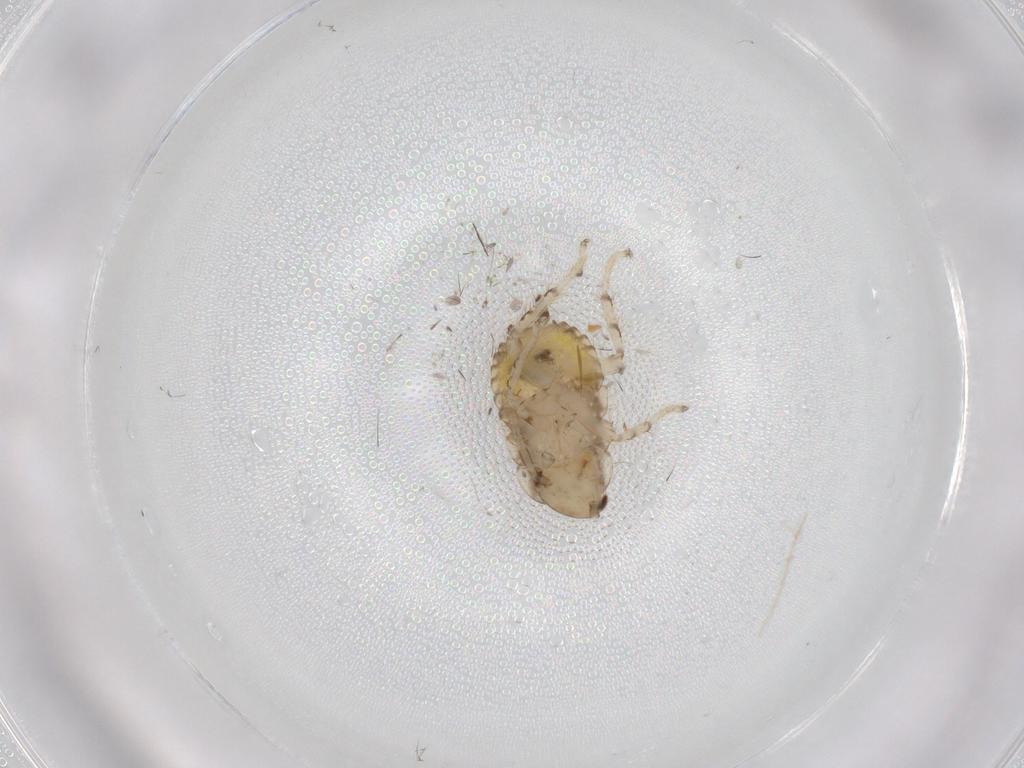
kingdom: Animalia
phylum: Arthropoda
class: Insecta
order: Blattodea
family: Ectobiidae
